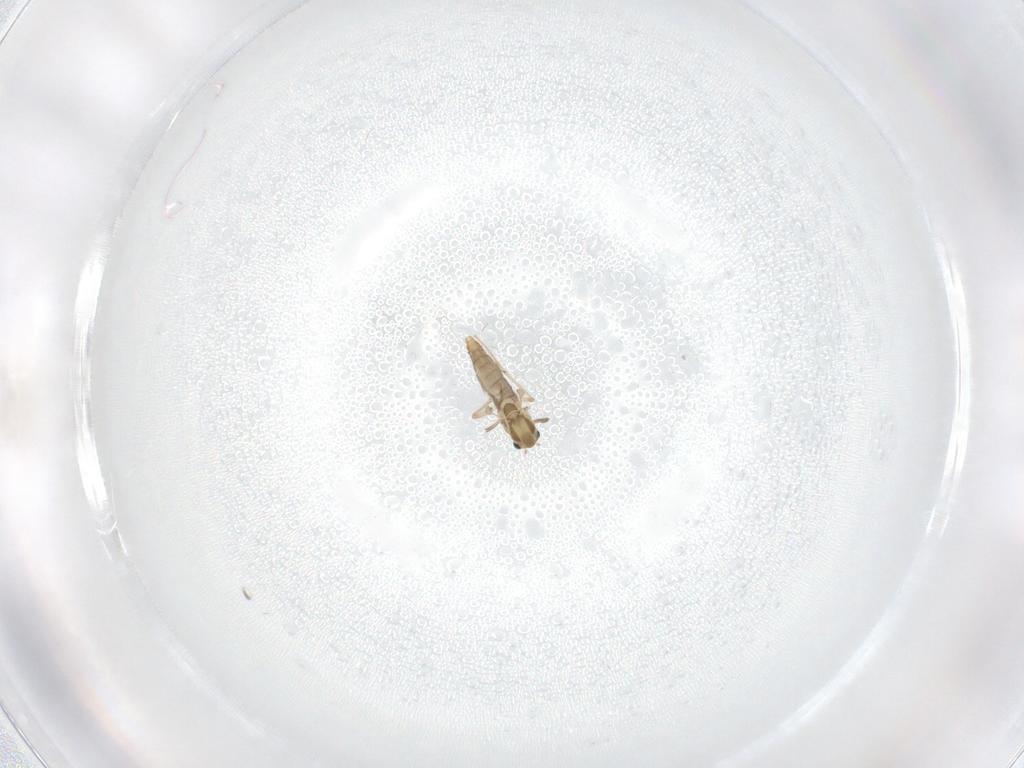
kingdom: Animalia
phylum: Arthropoda
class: Insecta
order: Diptera
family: Chironomidae
